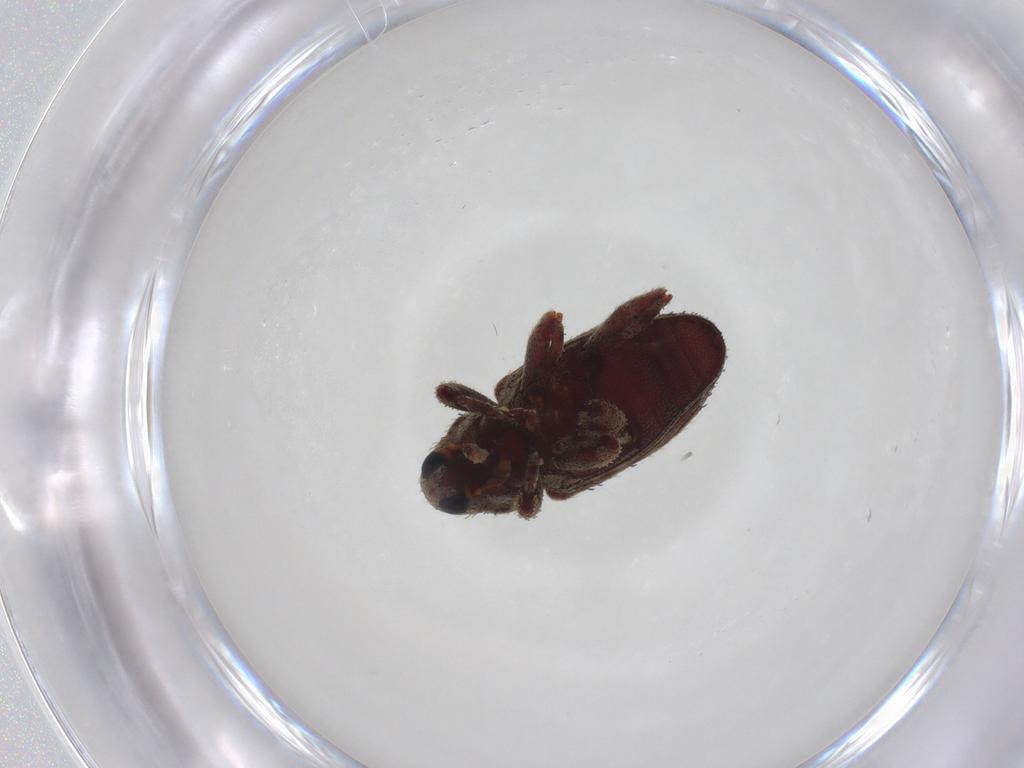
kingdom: Animalia
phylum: Arthropoda
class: Insecta
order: Coleoptera
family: Curculionidae
